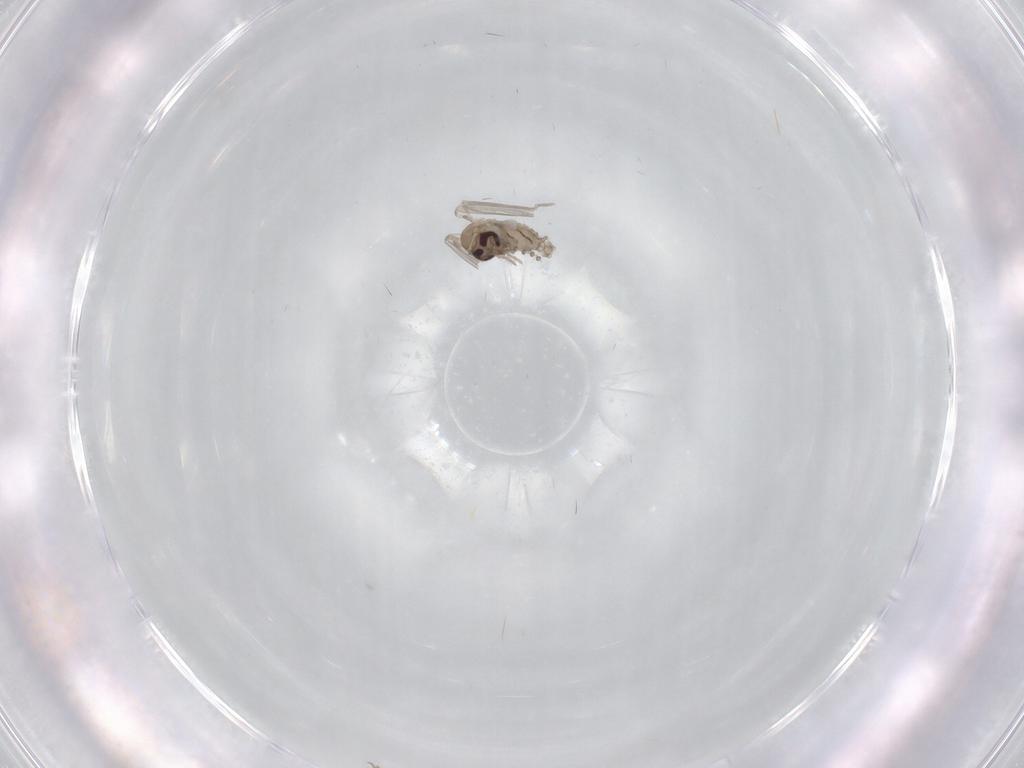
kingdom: Animalia
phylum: Arthropoda
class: Insecta
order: Diptera
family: Psychodidae
